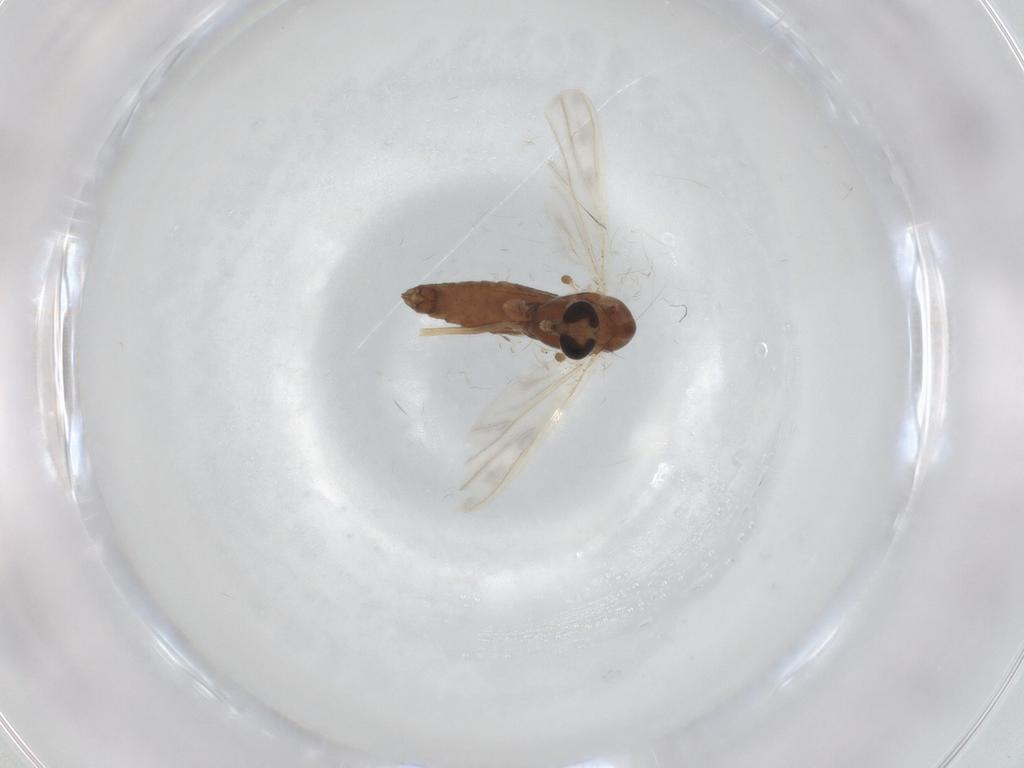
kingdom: Animalia
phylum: Arthropoda
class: Insecta
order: Diptera
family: Chironomidae
